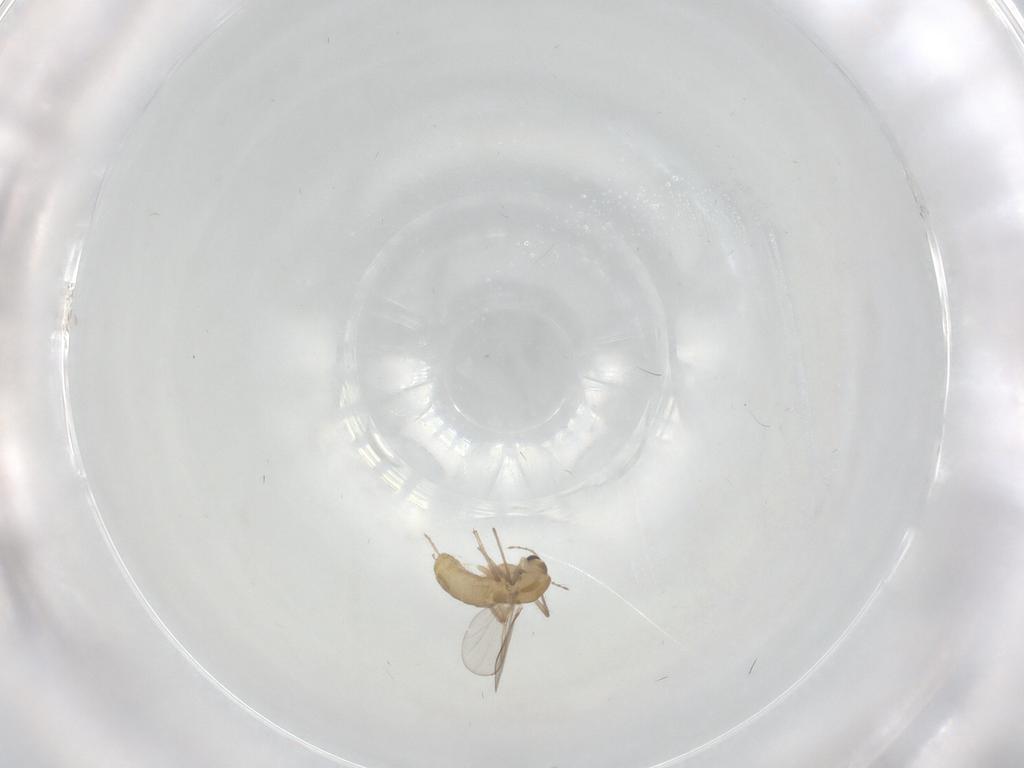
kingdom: Animalia
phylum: Arthropoda
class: Insecta
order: Diptera
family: Chironomidae
